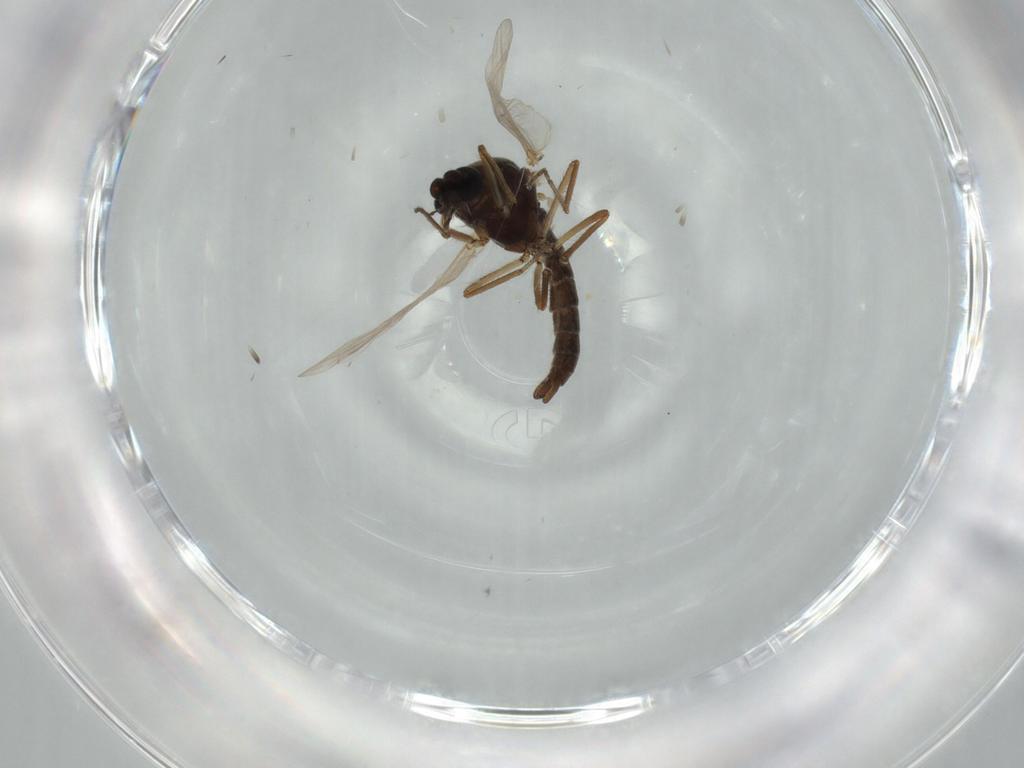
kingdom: Animalia
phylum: Arthropoda
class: Insecta
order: Diptera
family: Ceratopogonidae
